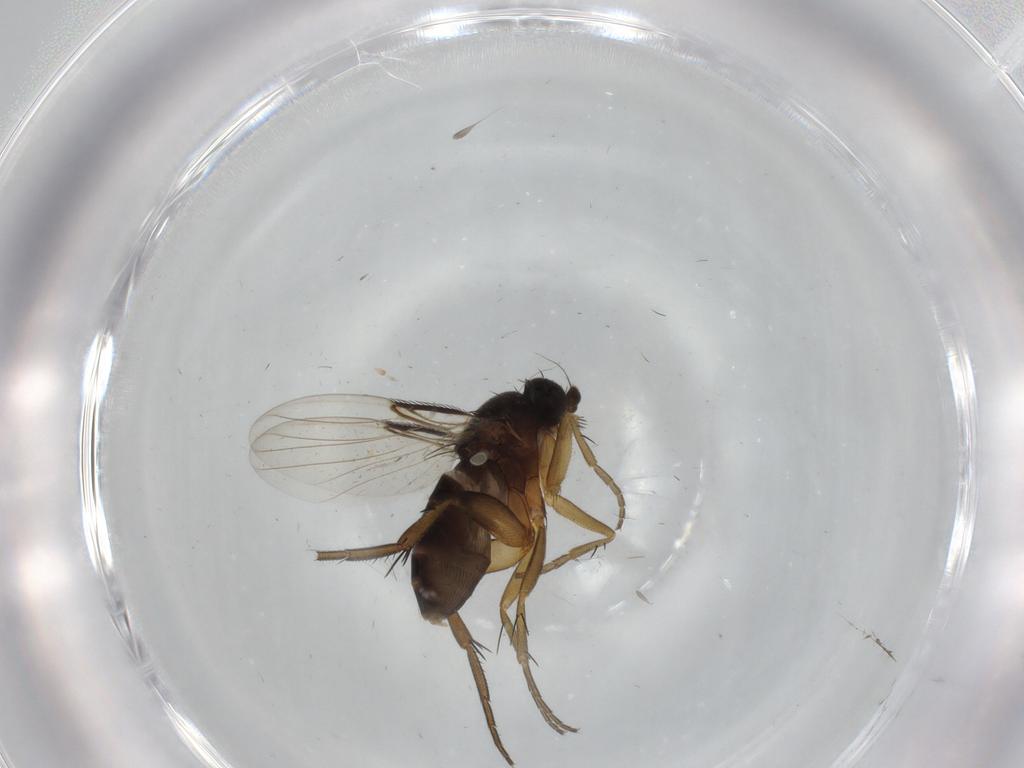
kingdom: Animalia
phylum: Arthropoda
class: Insecta
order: Diptera
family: Phoridae
